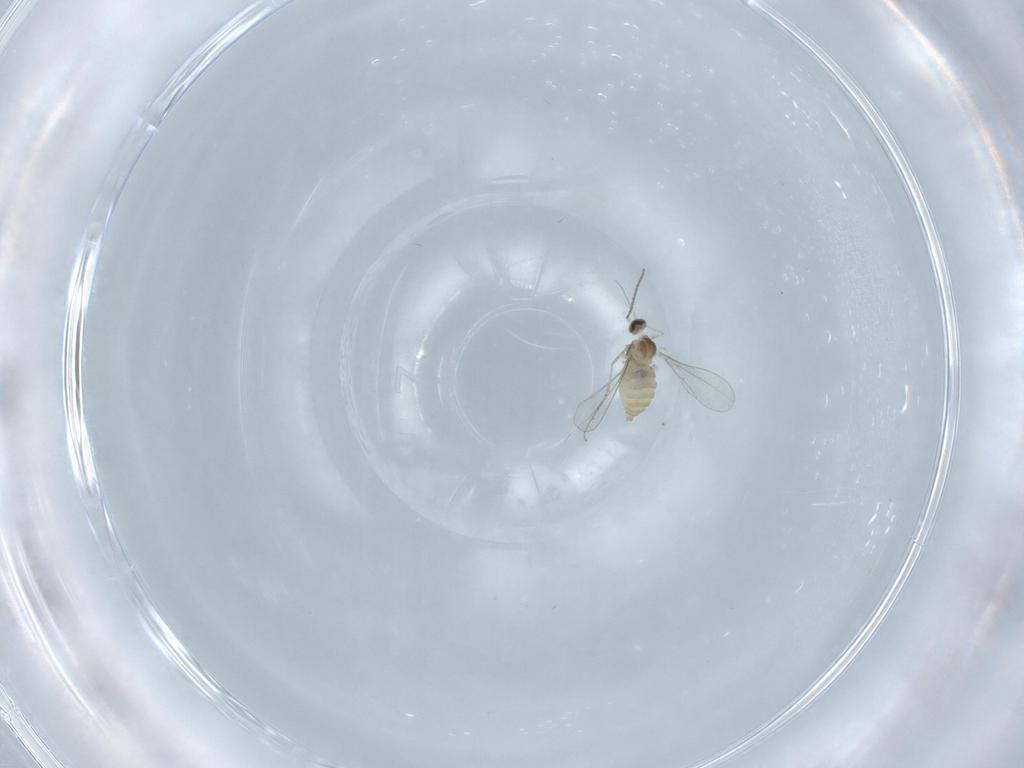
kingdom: Animalia
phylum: Arthropoda
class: Insecta
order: Diptera
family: Cecidomyiidae
